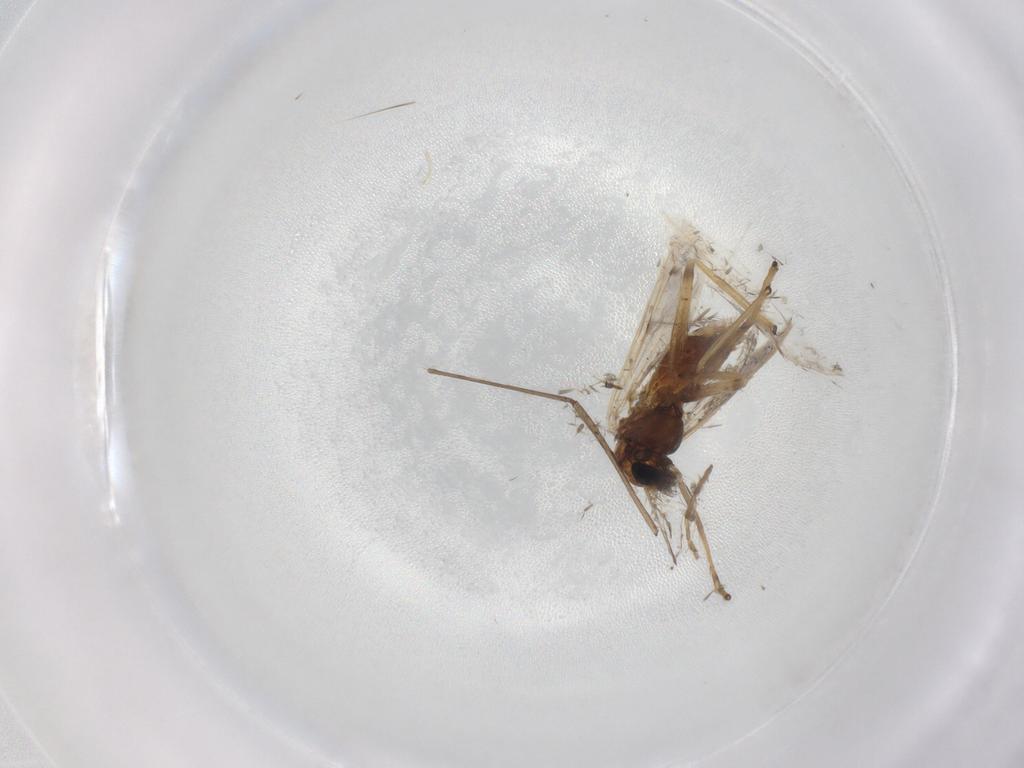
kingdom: Animalia
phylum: Arthropoda
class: Insecta
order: Diptera
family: Chironomidae
